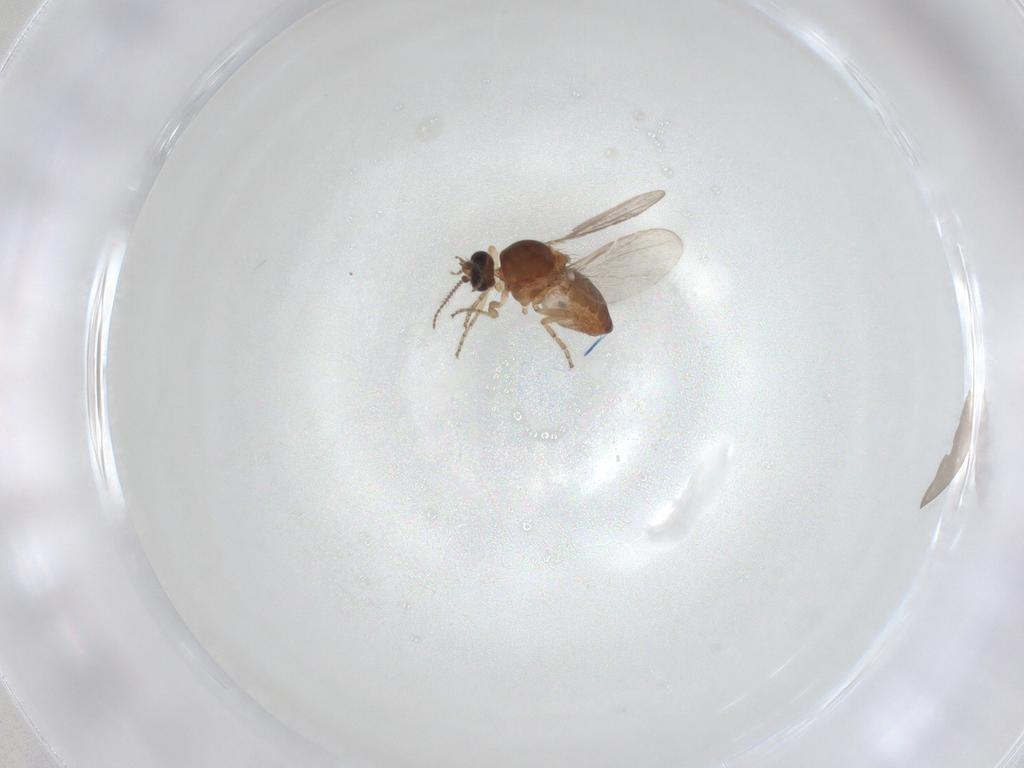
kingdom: Animalia
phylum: Arthropoda
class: Insecta
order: Diptera
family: Ceratopogonidae
